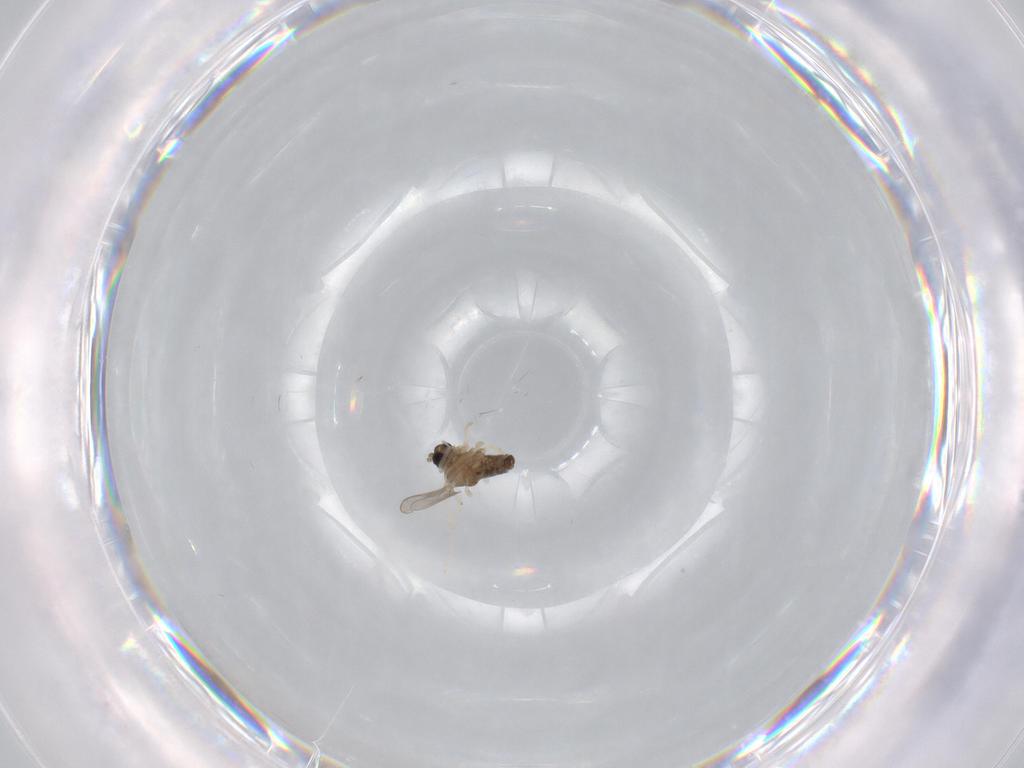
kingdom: Animalia
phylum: Arthropoda
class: Insecta
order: Diptera
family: Cecidomyiidae
